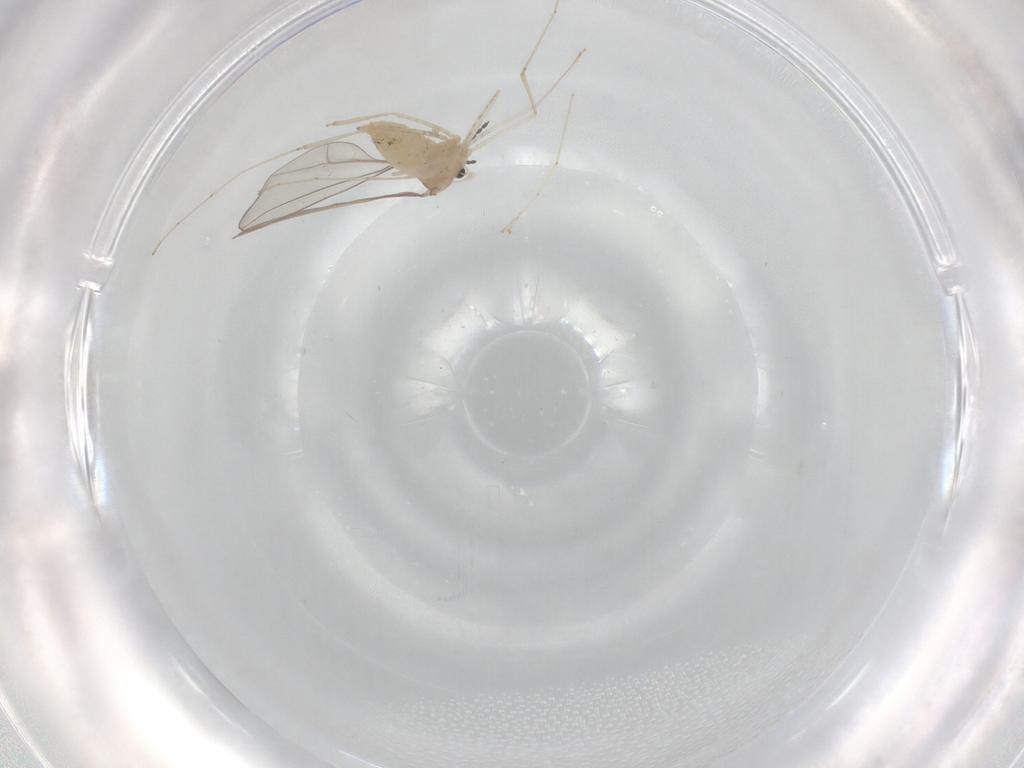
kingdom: Animalia
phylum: Arthropoda
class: Insecta
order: Diptera
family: Cecidomyiidae
